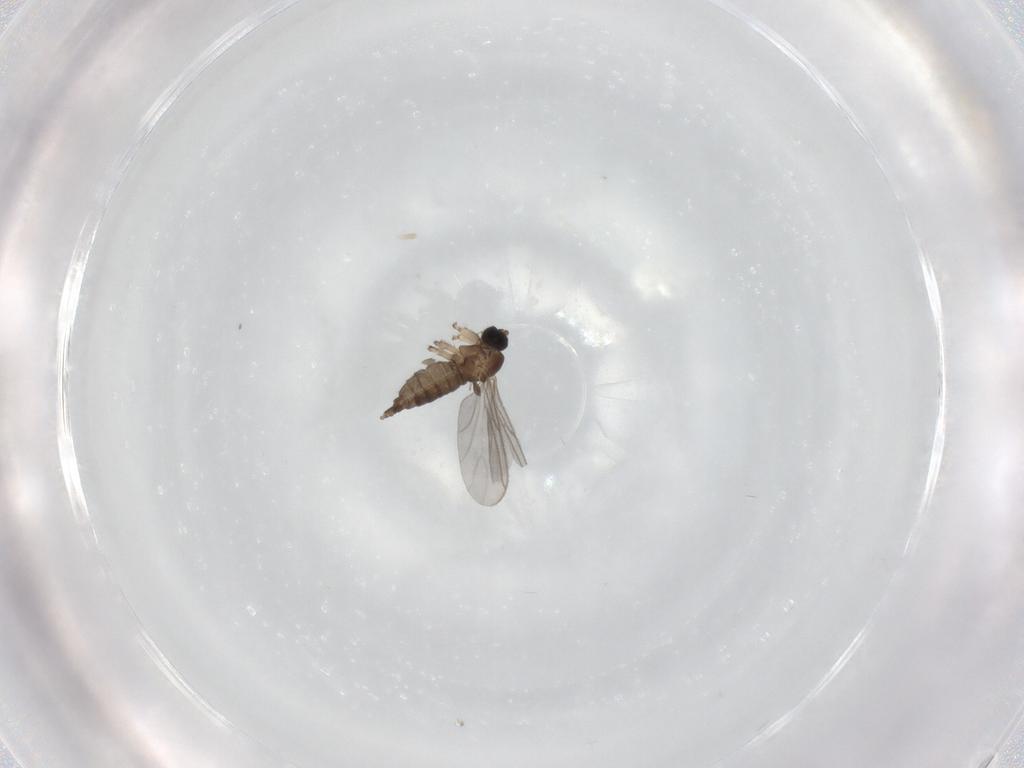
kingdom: Animalia
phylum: Arthropoda
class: Insecta
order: Diptera
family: Sciaridae
